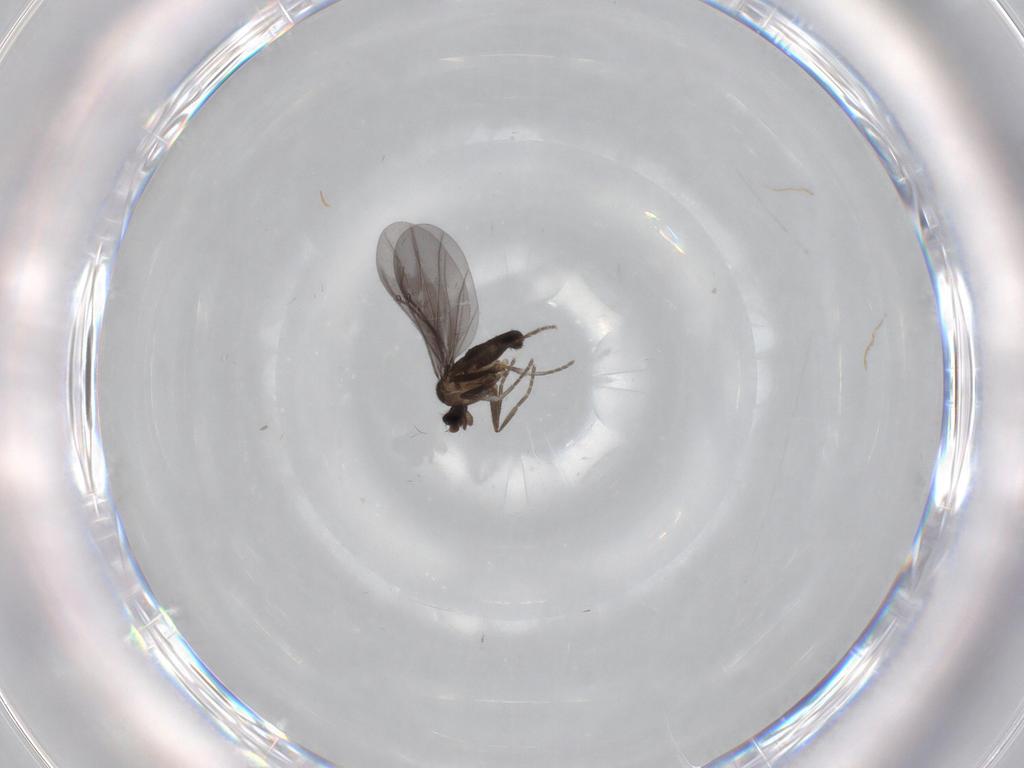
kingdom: Animalia
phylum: Arthropoda
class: Insecta
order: Diptera
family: Phoridae
